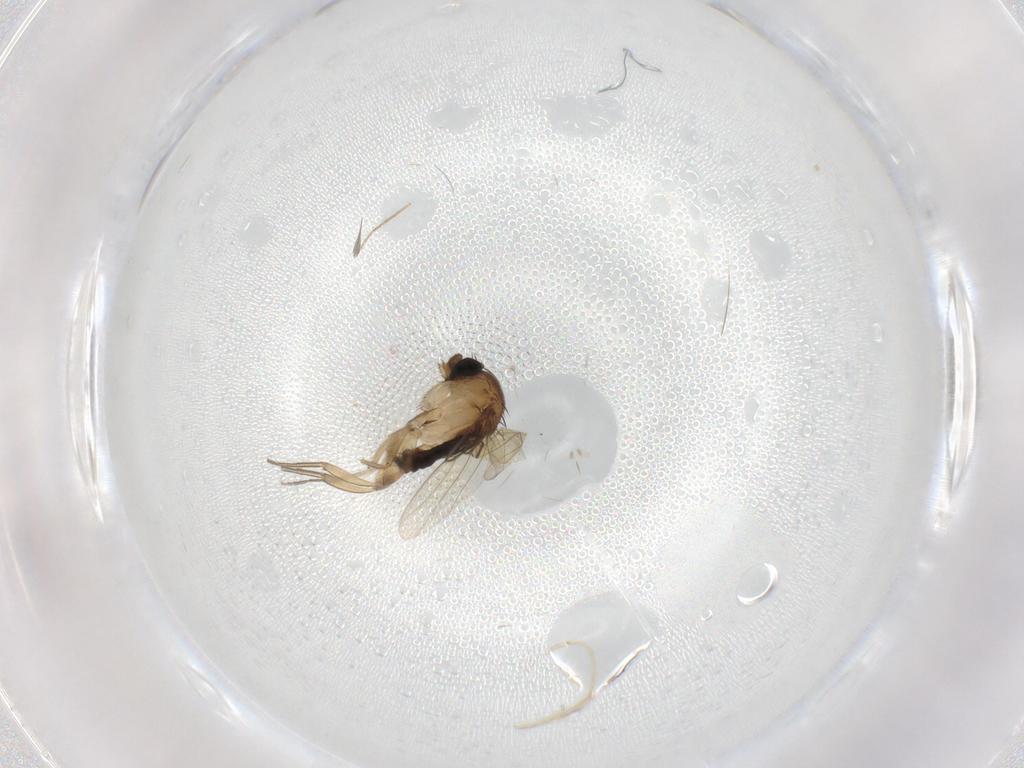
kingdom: Animalia
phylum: Arthropoda
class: Insecta
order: Diptera
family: Phoridae
